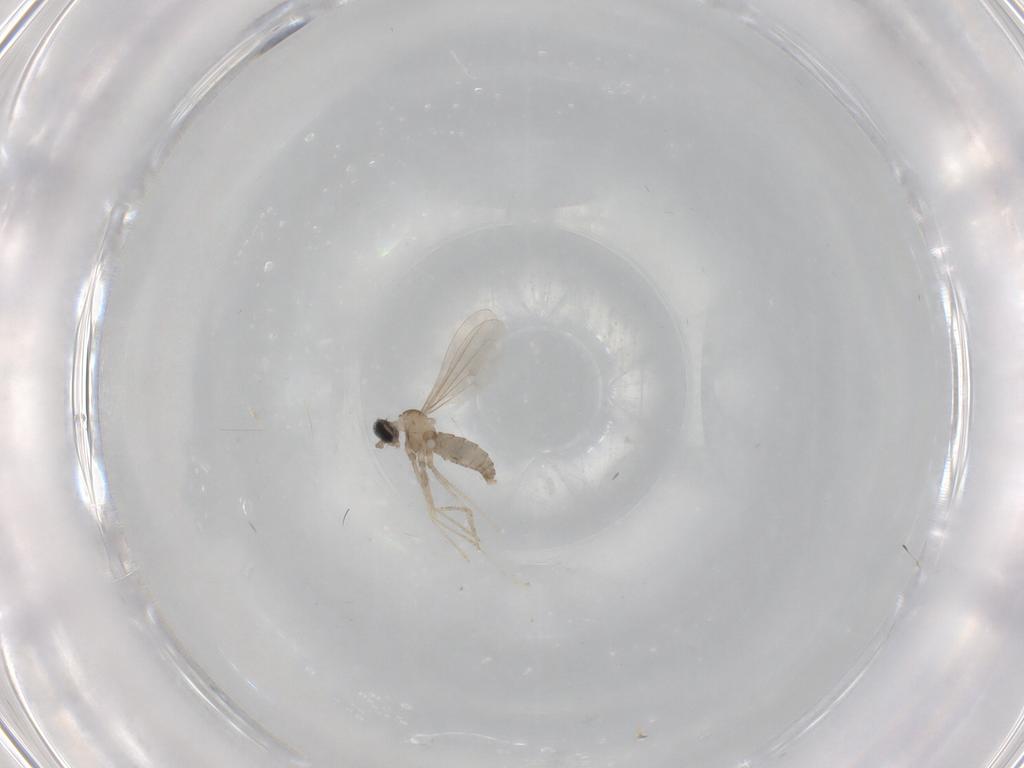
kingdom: Animalia
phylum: Arthropoda
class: Insecta
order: Diptera
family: Cecidomyiidae
